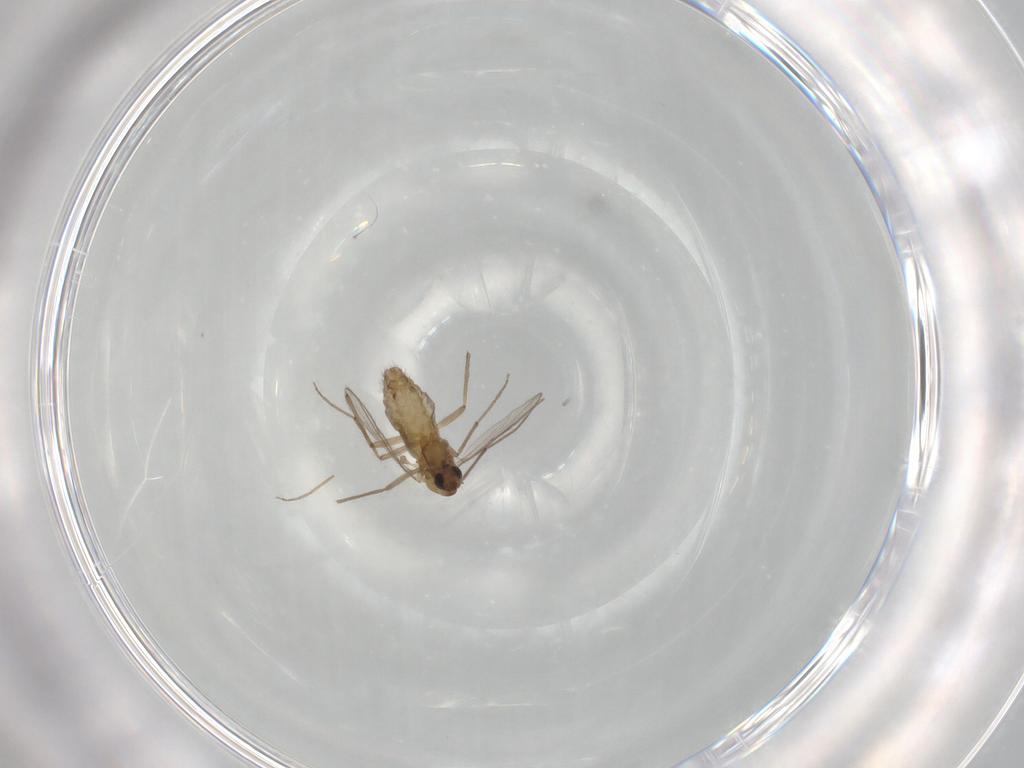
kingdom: Animalia
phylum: Arthropoda
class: Insecta
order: Diptera
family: Chironomidae
